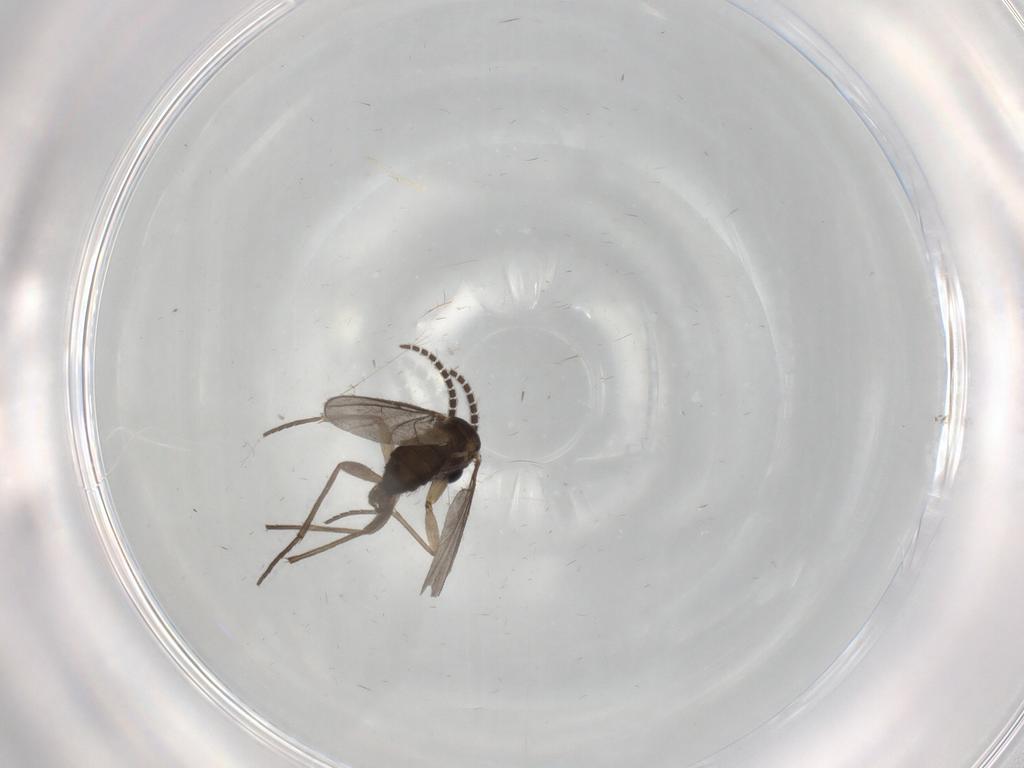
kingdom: Animalia
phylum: Arthropoda
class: Insecta
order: Diptera
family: Sciaridae
